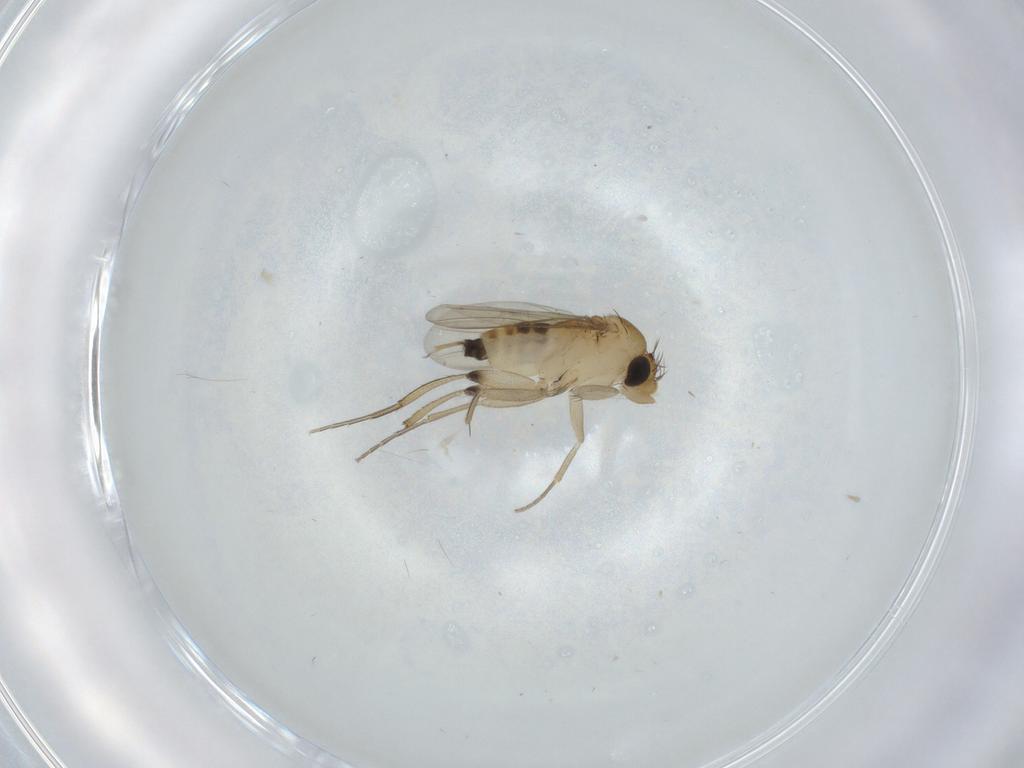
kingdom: Animalia
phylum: Arthropoda
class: Insecta
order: Diptera
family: Phoridae
